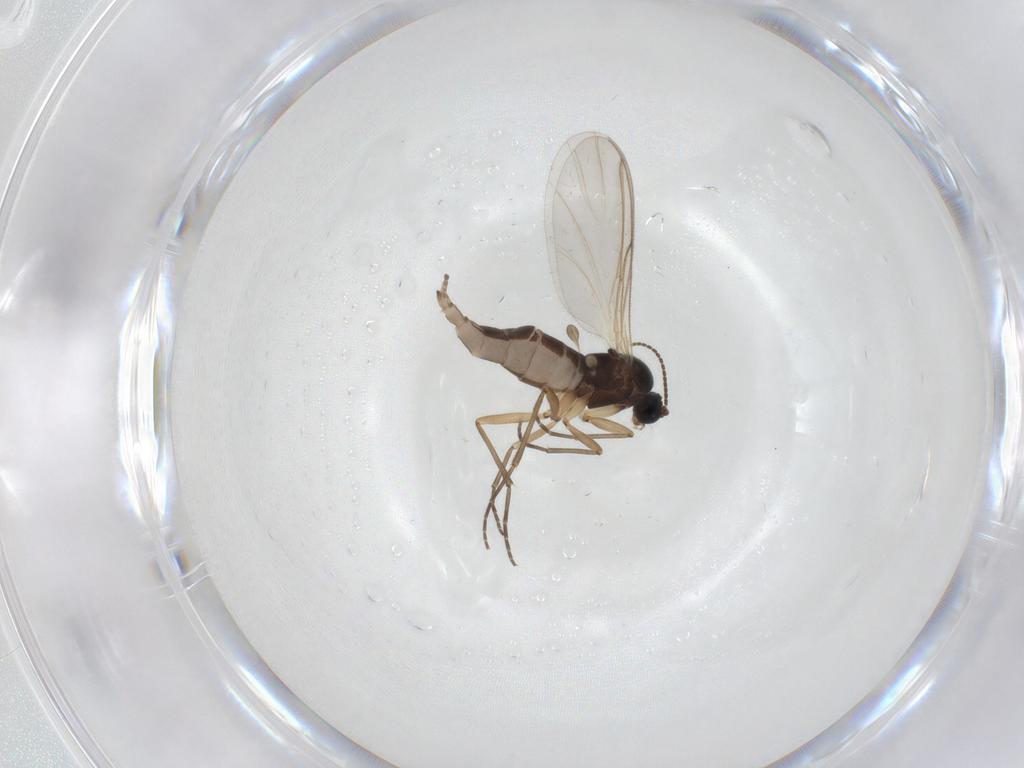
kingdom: Animalia
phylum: Arthropoda
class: Insecta
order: Diptera
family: Sciaridae
